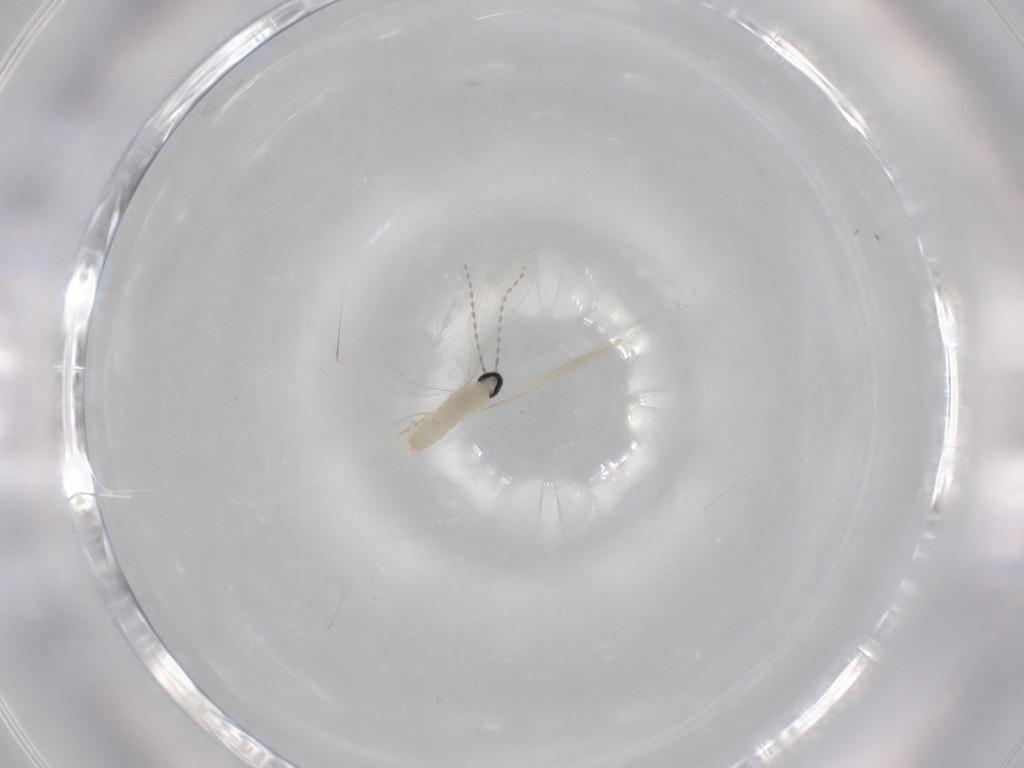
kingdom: Animalia
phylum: Arthropoda
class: Insecta
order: Diptera
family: Cecidomyiidae
